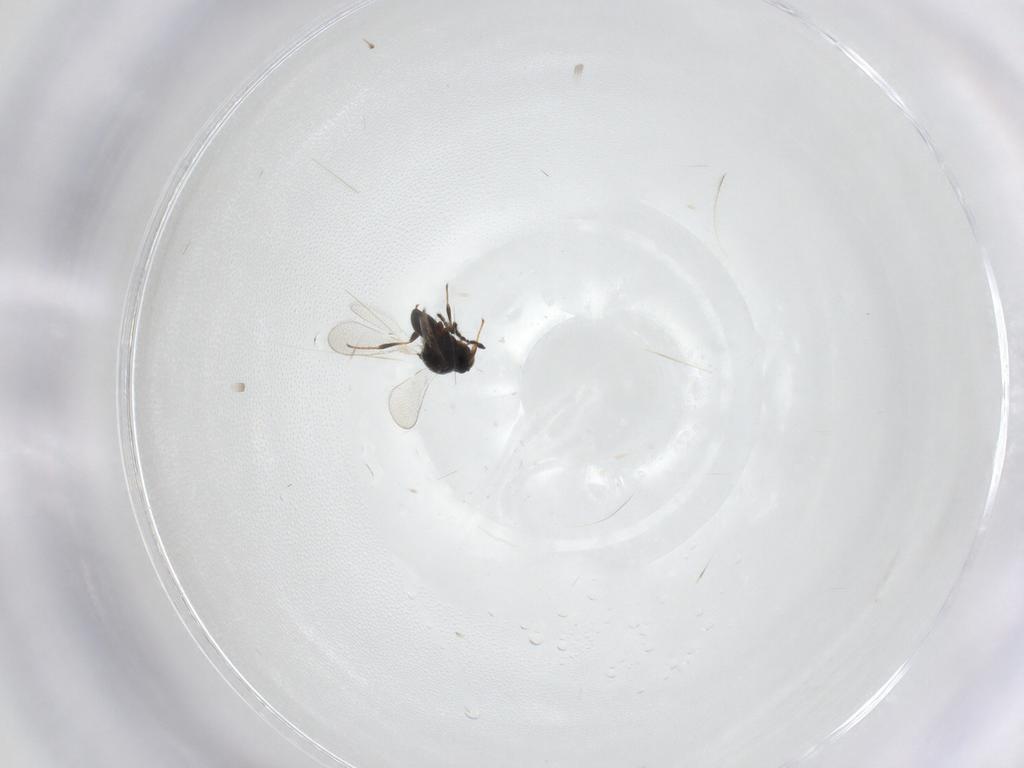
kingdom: Animalia
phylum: Arthropoda
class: Insecta
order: Hymenoptera
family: Platygastridae
